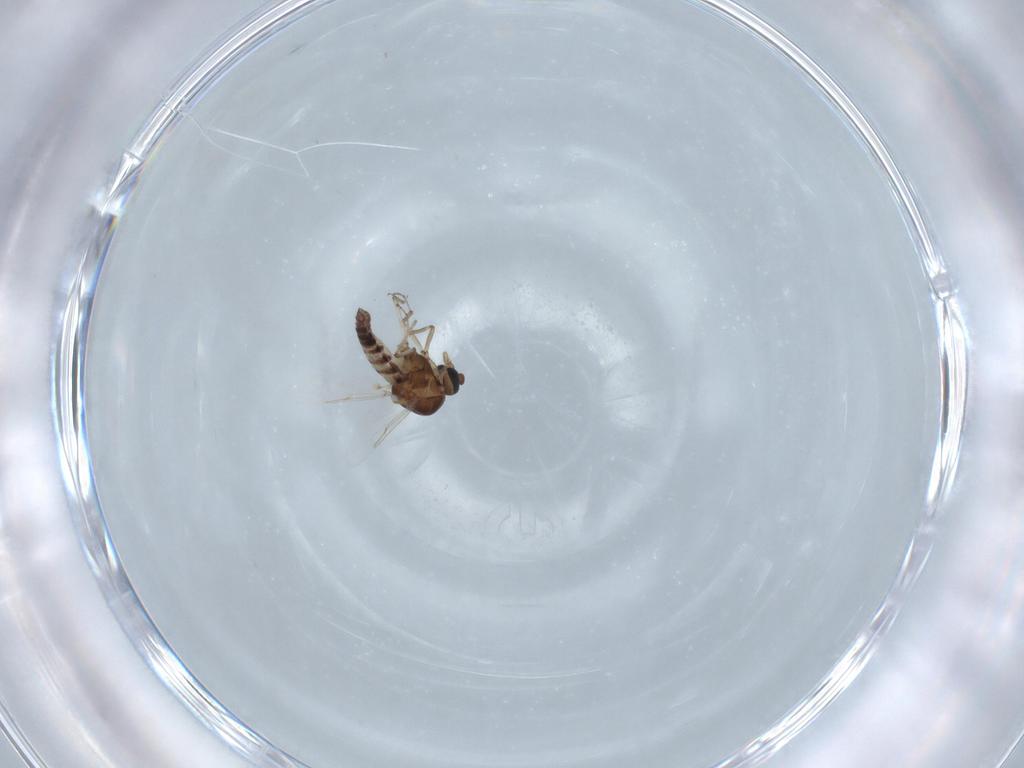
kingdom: Animalia
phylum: Arthropoda
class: Insecta
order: Diptera
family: Ceratopogonidae
